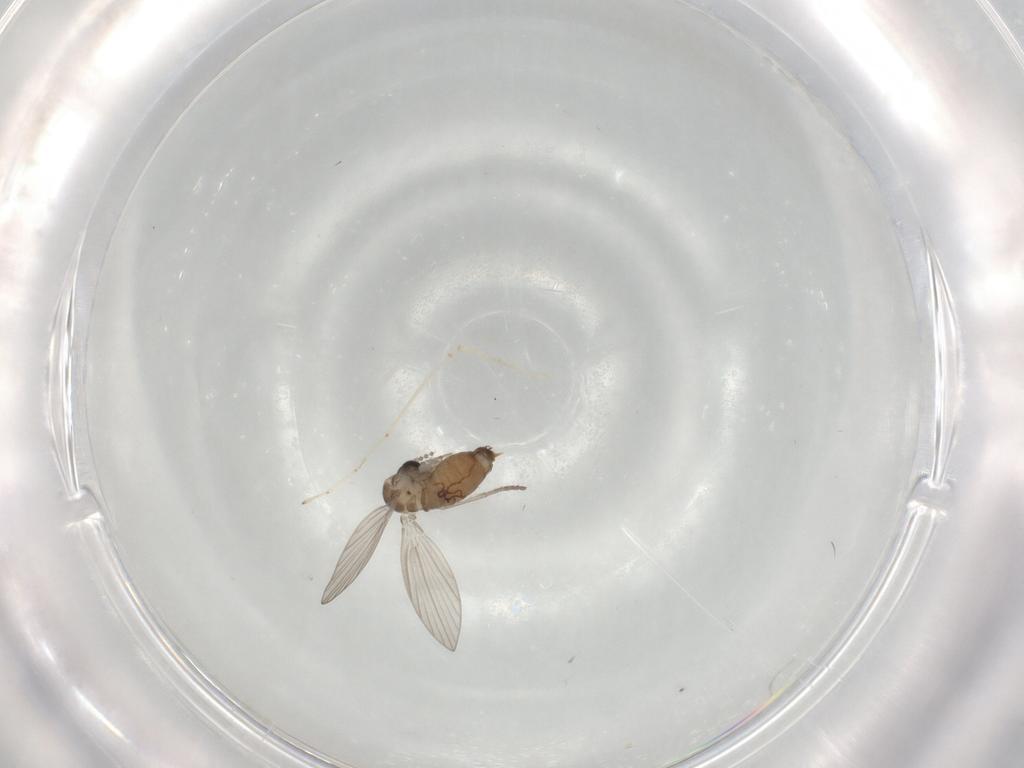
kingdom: Animalia
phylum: Arthropoda
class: Insecta
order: Diptera
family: Cecidomyiidae
